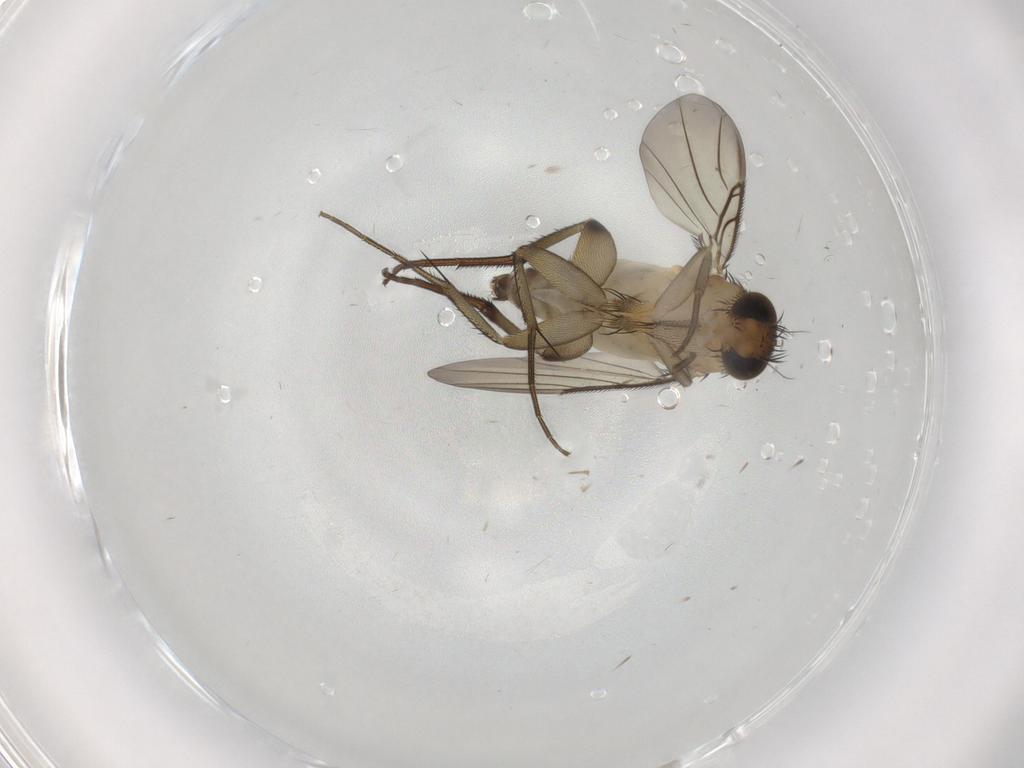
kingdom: Animalia
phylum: Arthropoda
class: Insecta
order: Diptera
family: Phoridae
